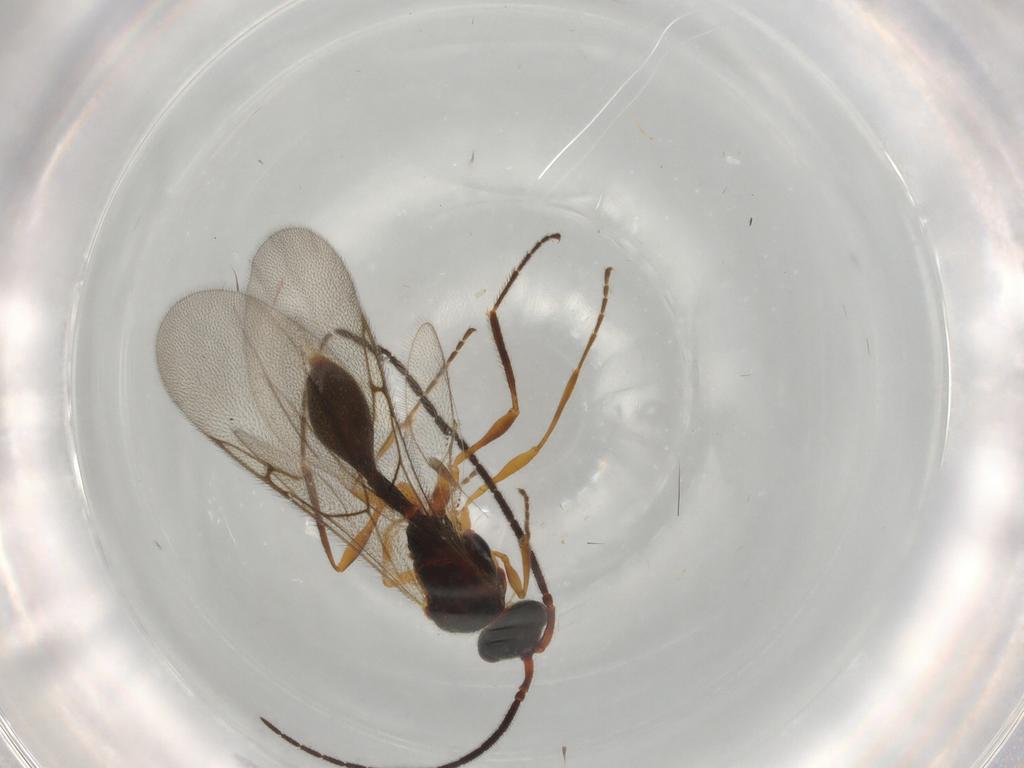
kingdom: Animalia
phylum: Arthropoda
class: Insecta
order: Hymenoptera
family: Diapriidae
